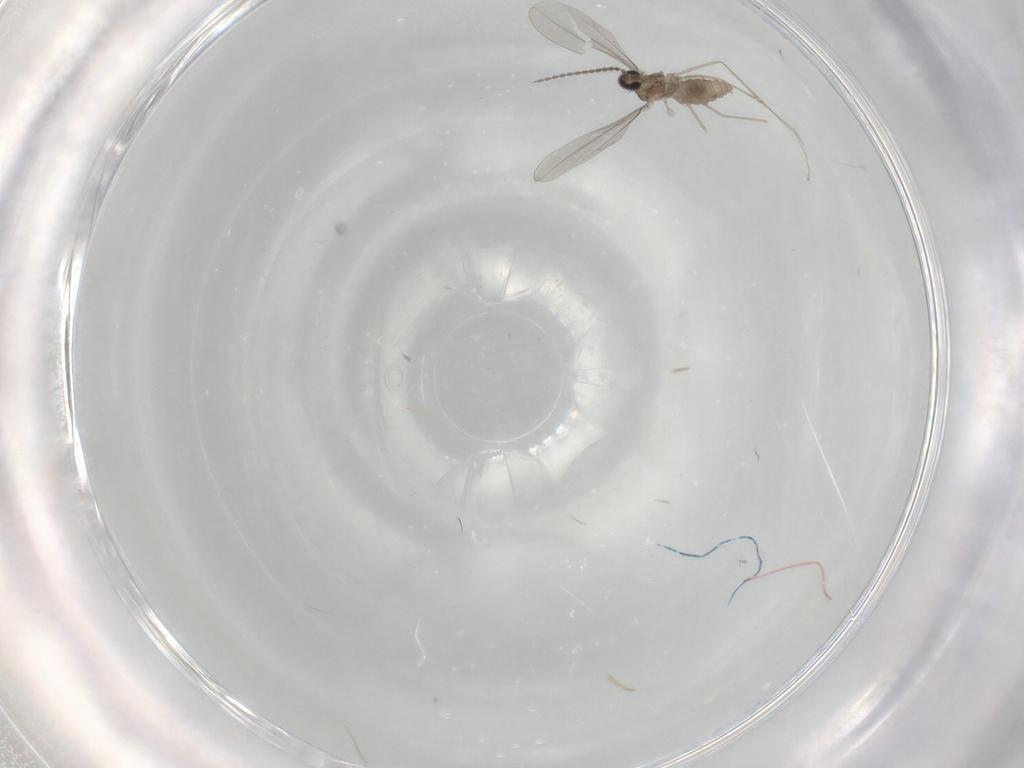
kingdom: Animalia
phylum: Arthropoda
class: Insecta
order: Diptera
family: Cecidomyiidae
